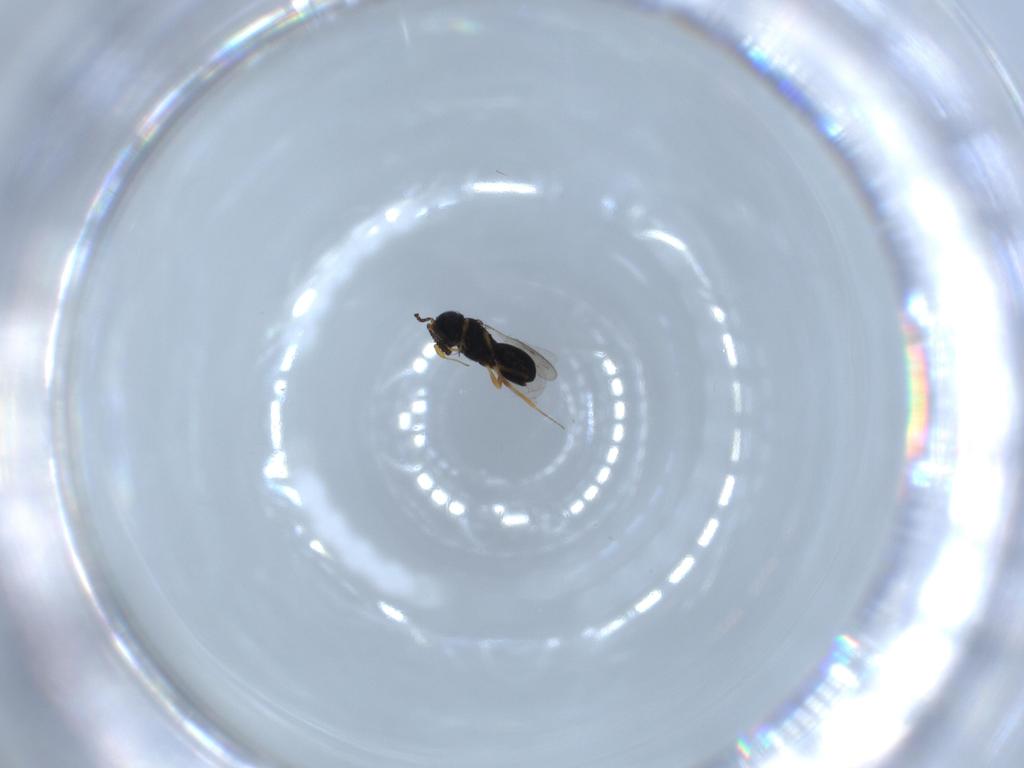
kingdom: Animalia
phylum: Arthropoda
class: Insecta
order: Hymenoptera
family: Scelionidae
